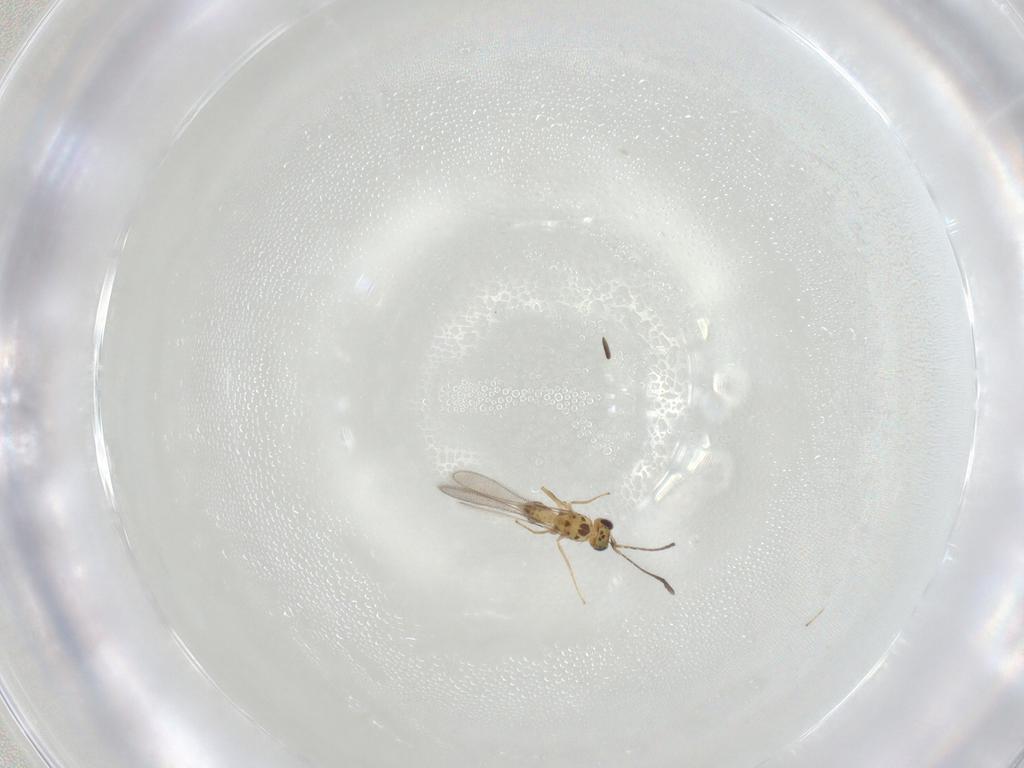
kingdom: Animalia
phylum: Arthropoda
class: Insecta
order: Hymenoptera
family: Mymaridae
